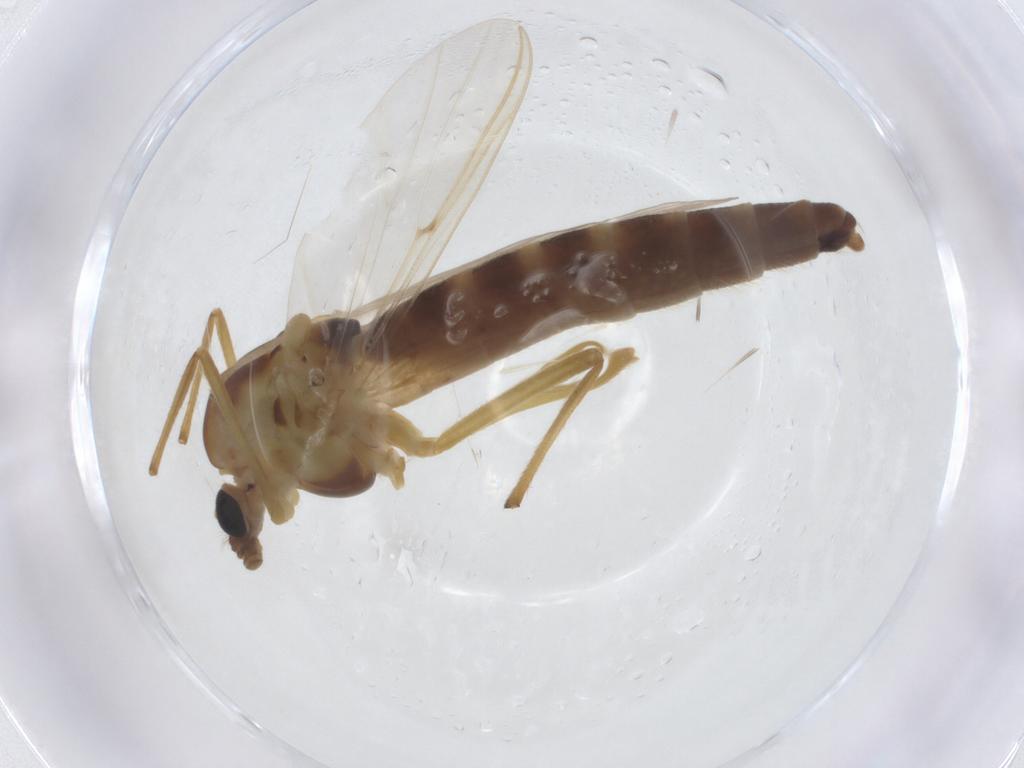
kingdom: Animalia
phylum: Arthropoda
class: Insecta
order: Diptera
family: Chironomidae
